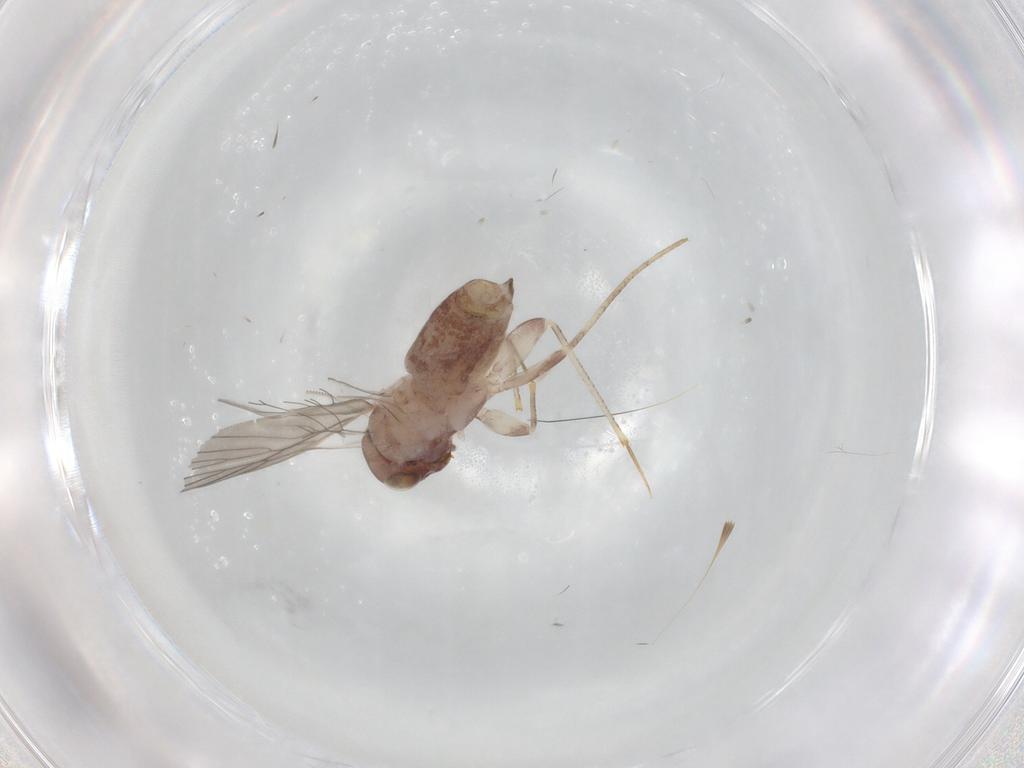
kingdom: Animalia
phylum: Arthropoda
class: Insecta
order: Psocodea
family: Lepidopsocidae
